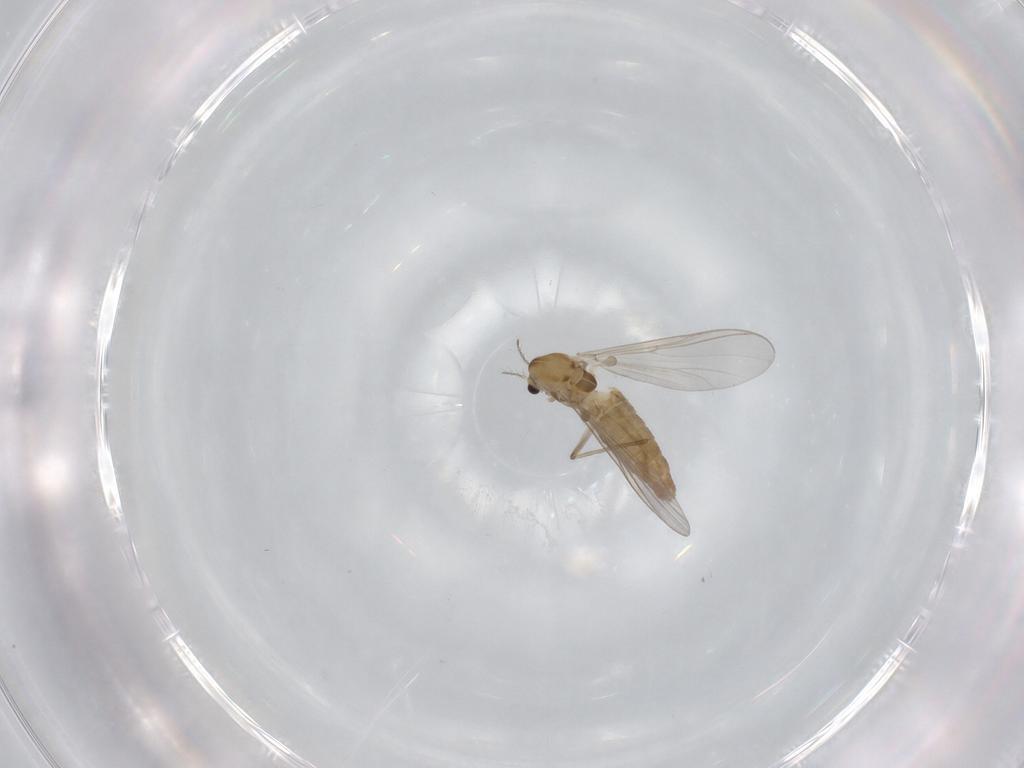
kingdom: Animalia
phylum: Arthropoda
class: Insecta
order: Diptera
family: Chironomidae
